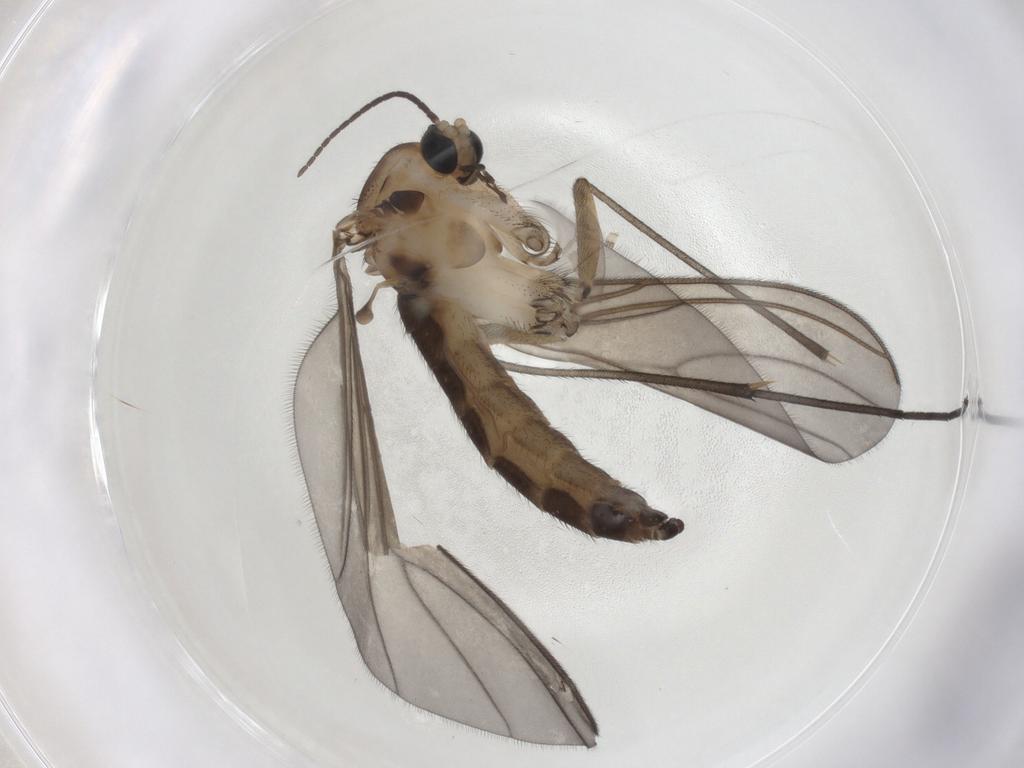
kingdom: Animalia
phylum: Arthropoda
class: Insecta
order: Diptera
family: Sciaridae
